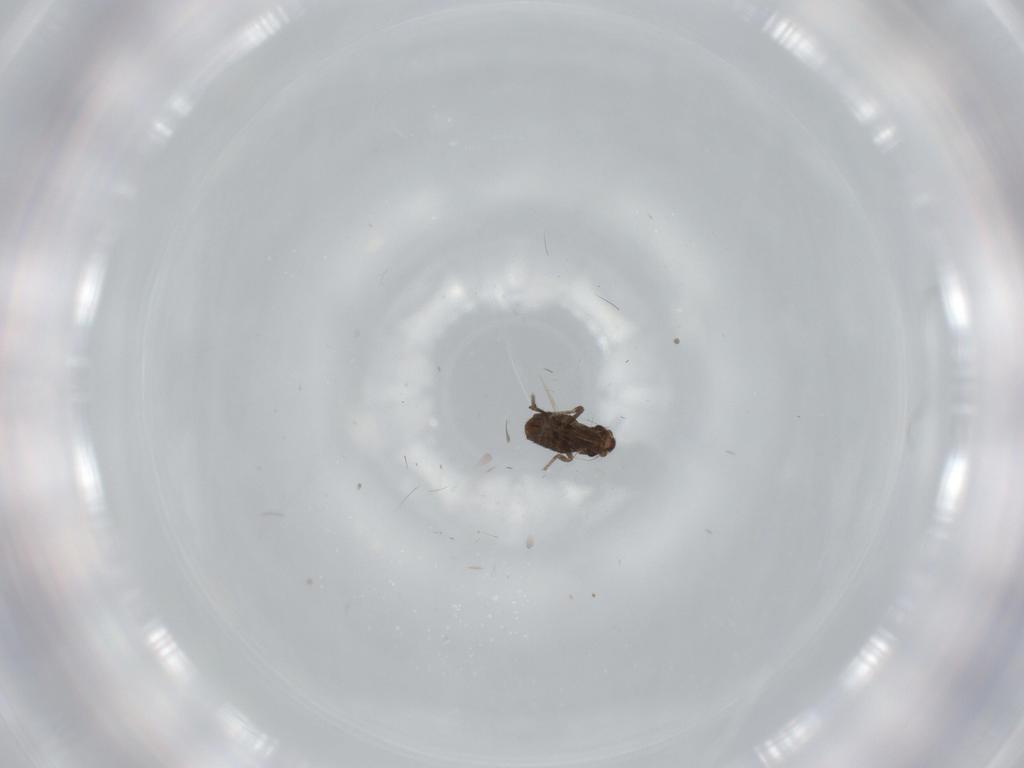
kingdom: Animalia
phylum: Arthropoda
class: Insecta
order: Diptera
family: Phoridae
